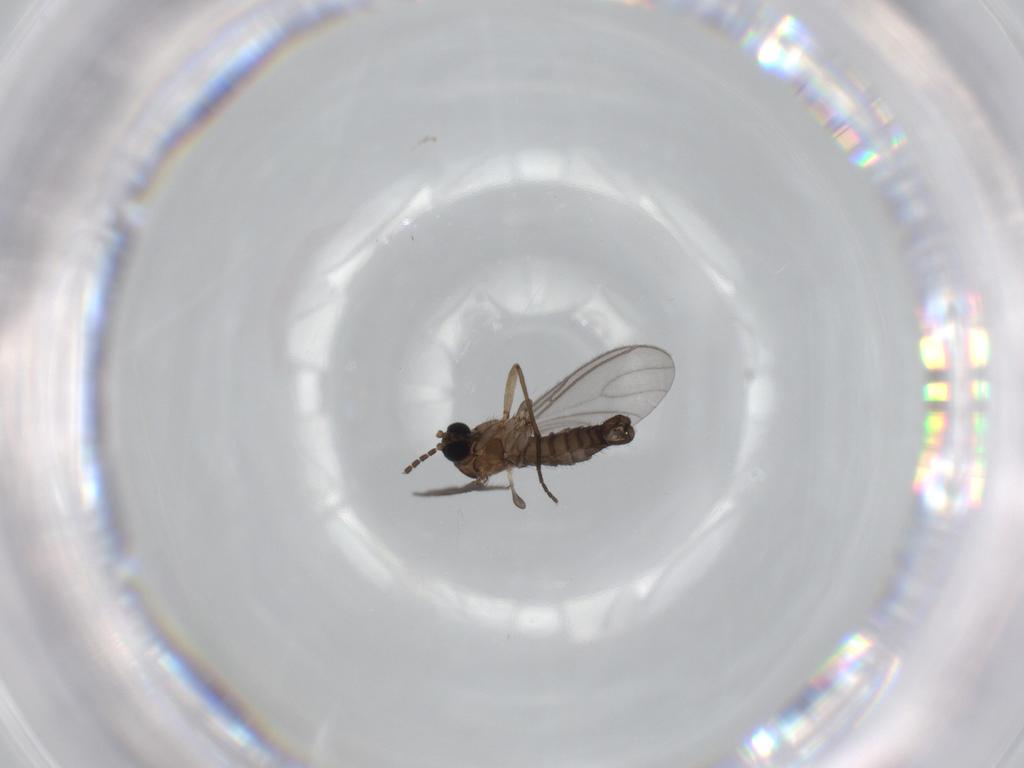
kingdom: Animalia
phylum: Arthropoda
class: Insecta
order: Diptera
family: Sciaridae
